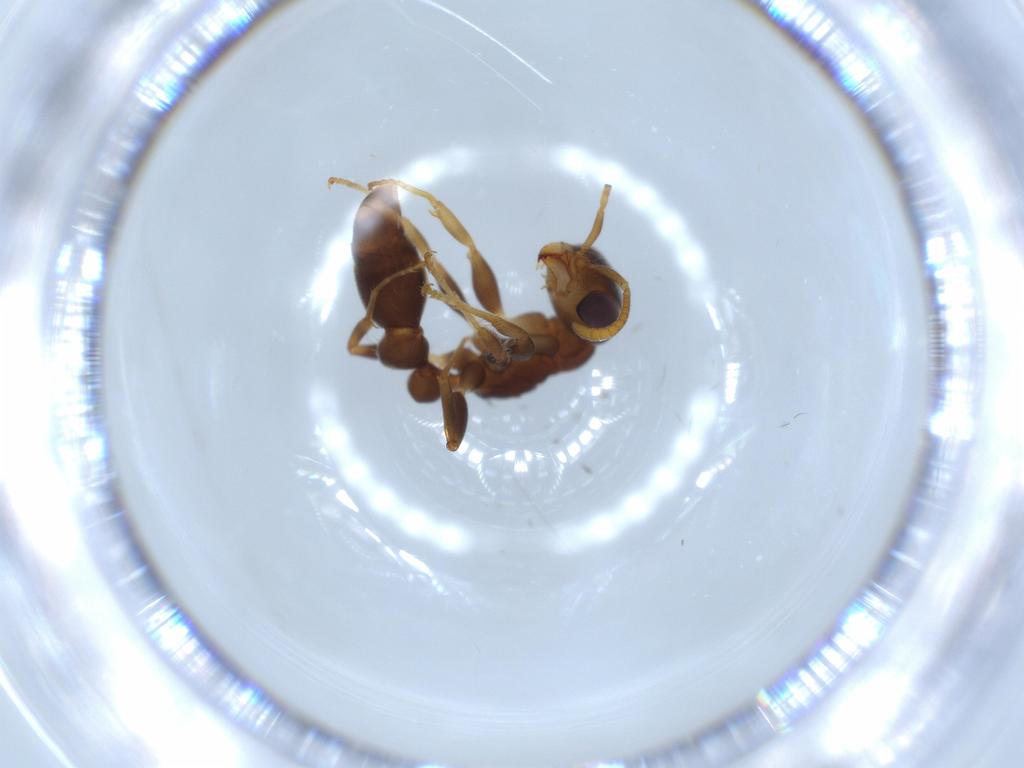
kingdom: Animalia
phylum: Arthropoda
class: Insecta
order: Hymenoptera
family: Formicidae
